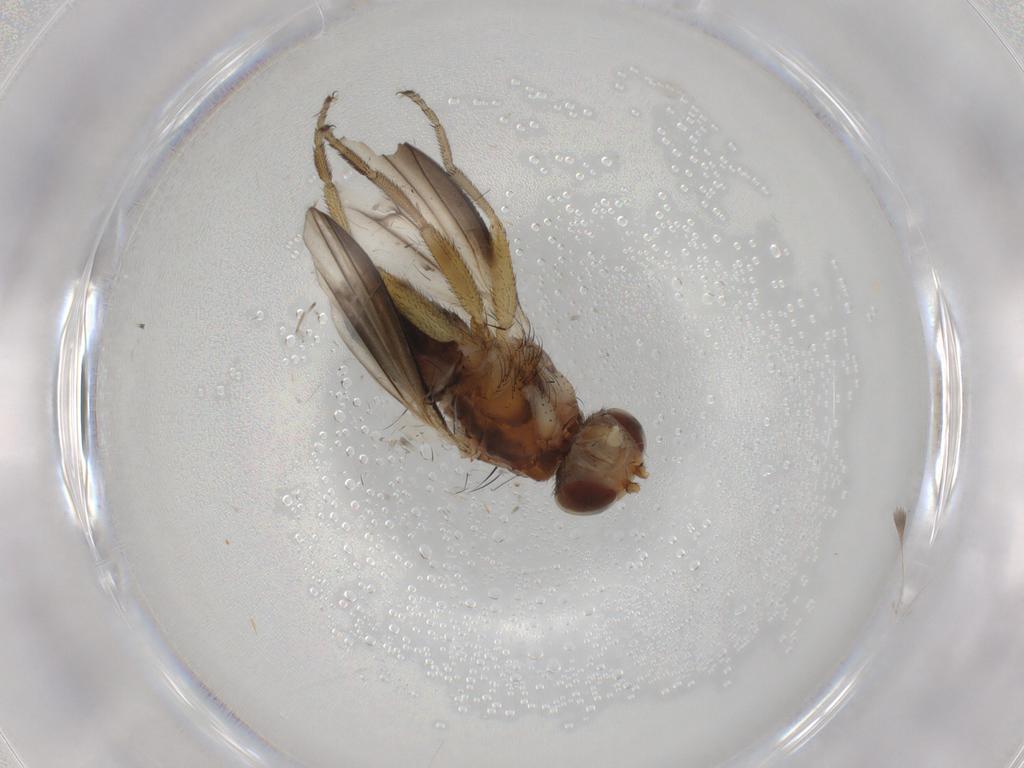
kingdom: Animalia
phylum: Arthropoda
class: Insecta
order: Diptera
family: Heleomyzidae
